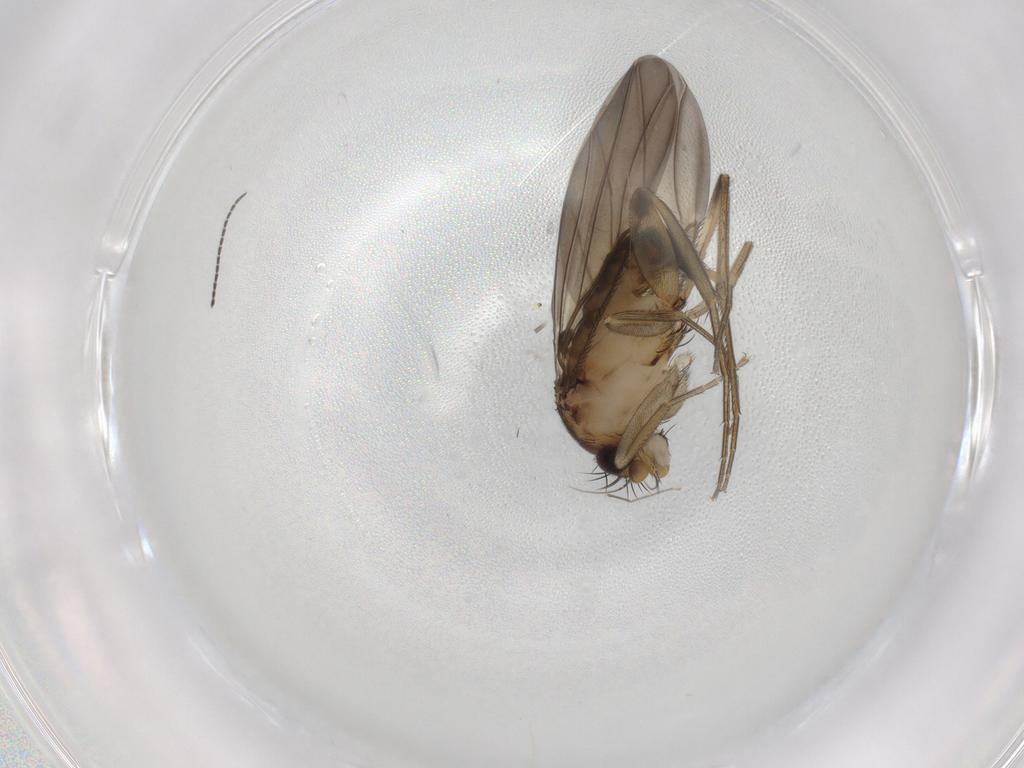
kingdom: Animalia
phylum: Arthropoda
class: Insecta
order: Diptera
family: Phoridae
